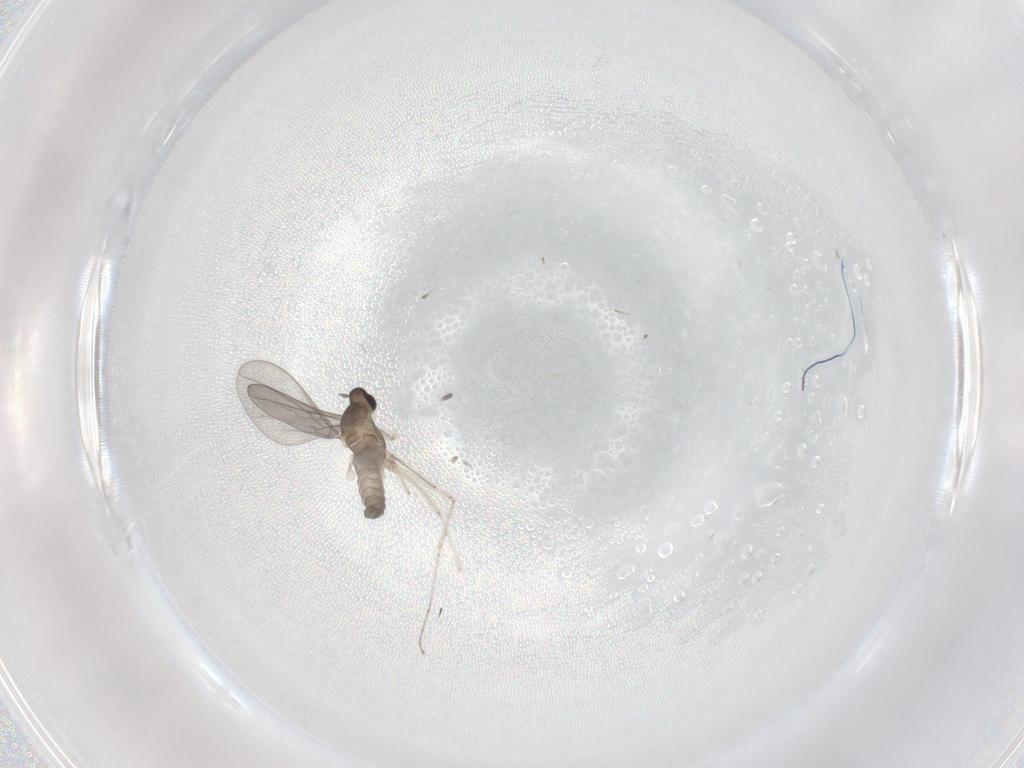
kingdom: Animalia
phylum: Arthropoda
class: Insecta
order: Diptera
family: Cecidomyiidae
